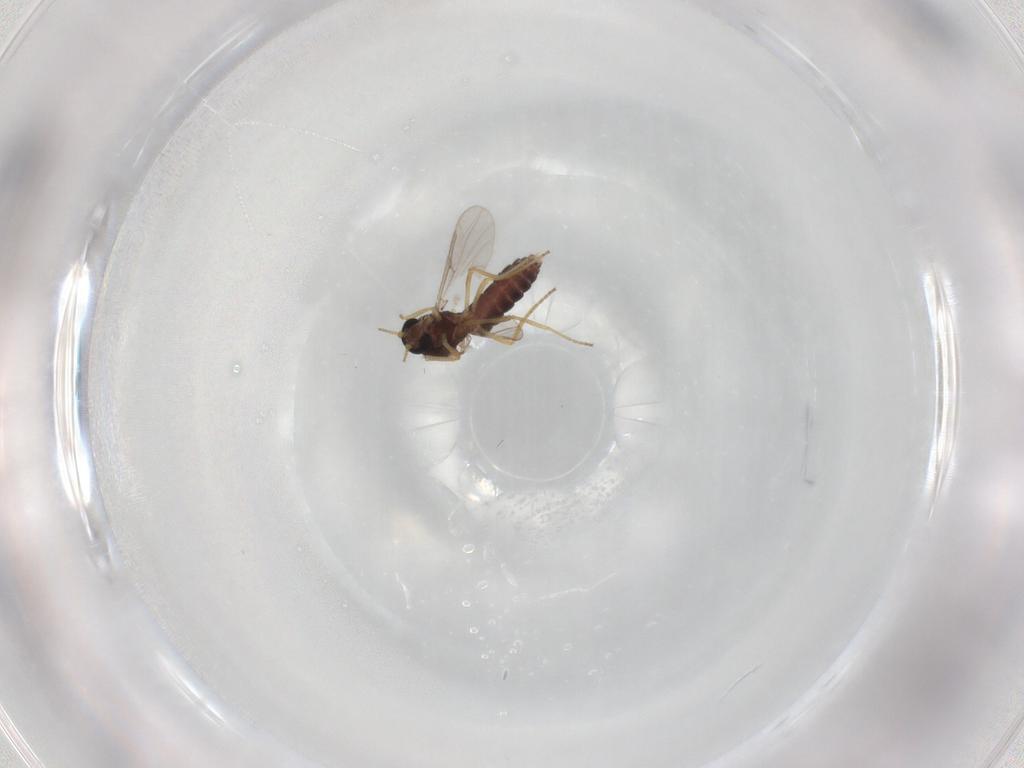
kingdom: Animalia
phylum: Arthropoda
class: Insecta
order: Diptera
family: Ceratopogonidae
